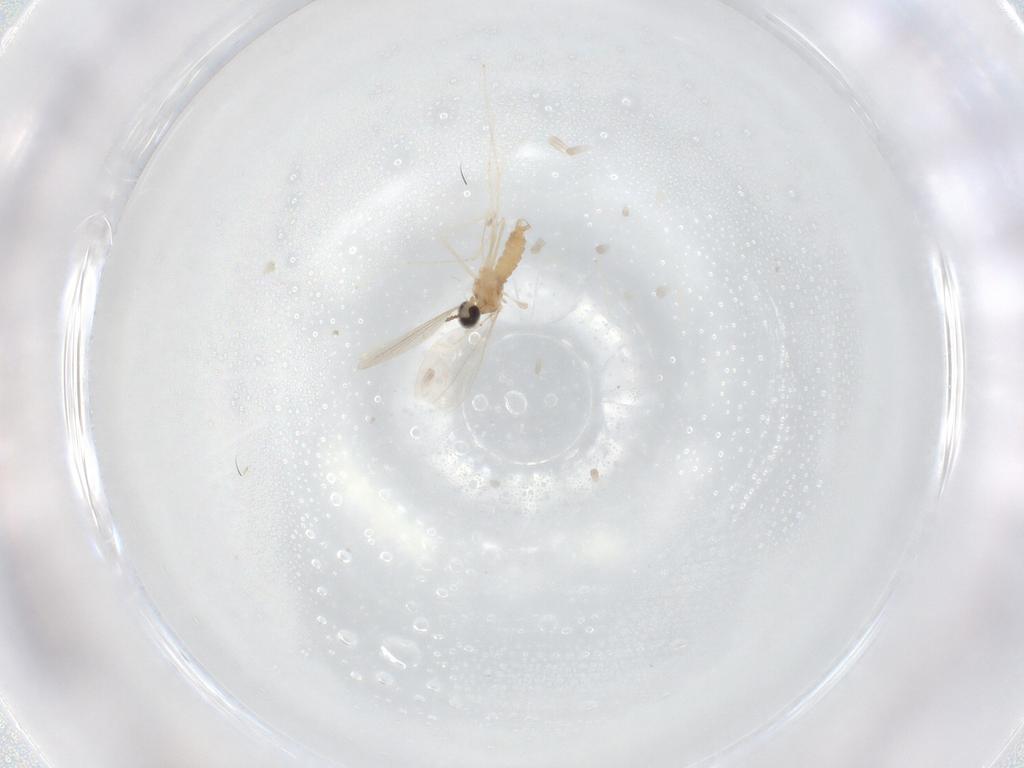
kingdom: Animalia
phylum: Arthropoda
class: Insecta
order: Diptera
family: Cecidomyiidae
